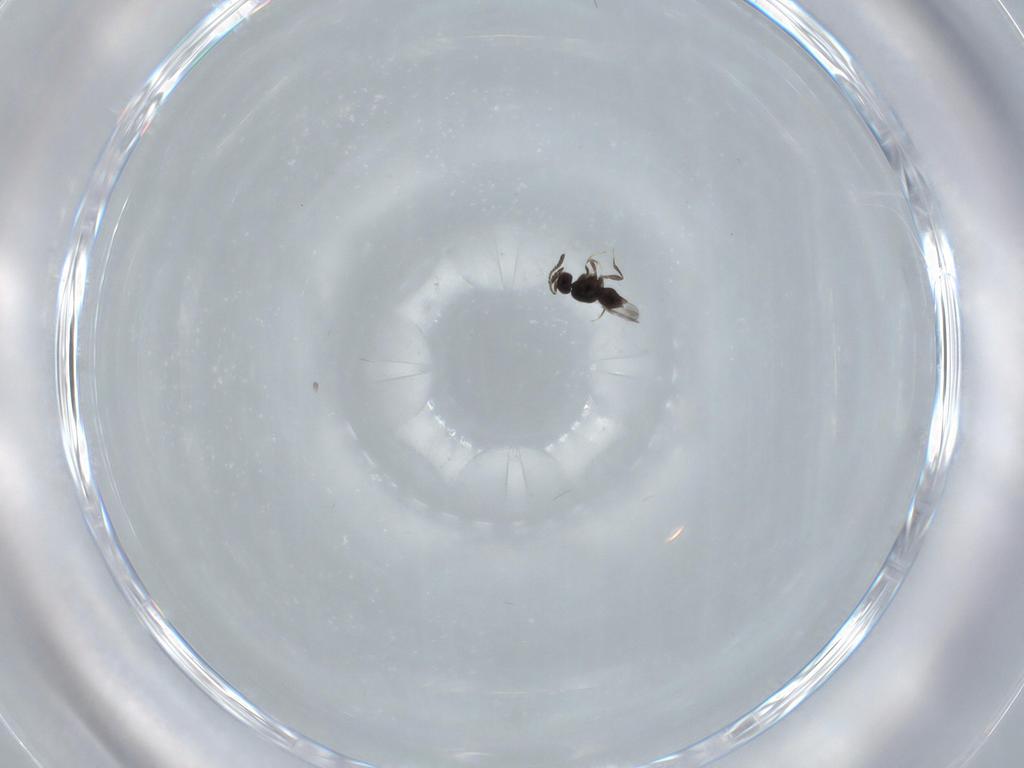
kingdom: Animalia
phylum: Arthropoda
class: Insecta
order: Hymenoptera
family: Ceraphronidae
